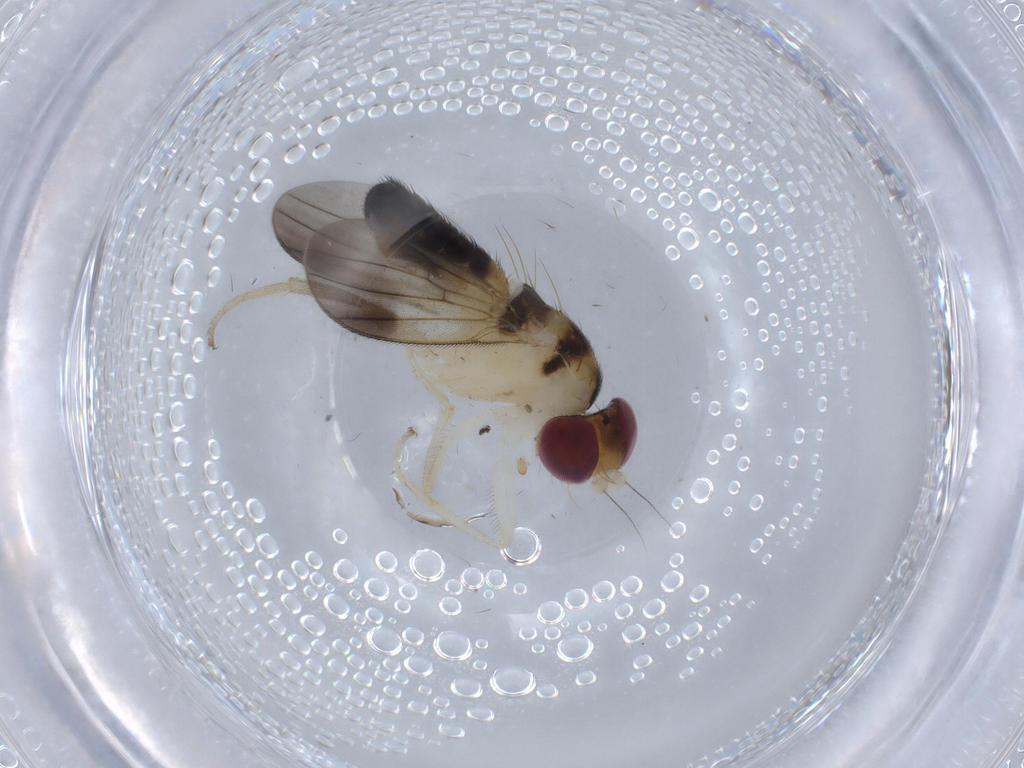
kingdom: Animalia
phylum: Arthropoda
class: Insecta
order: Diptera
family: Clusiidae
